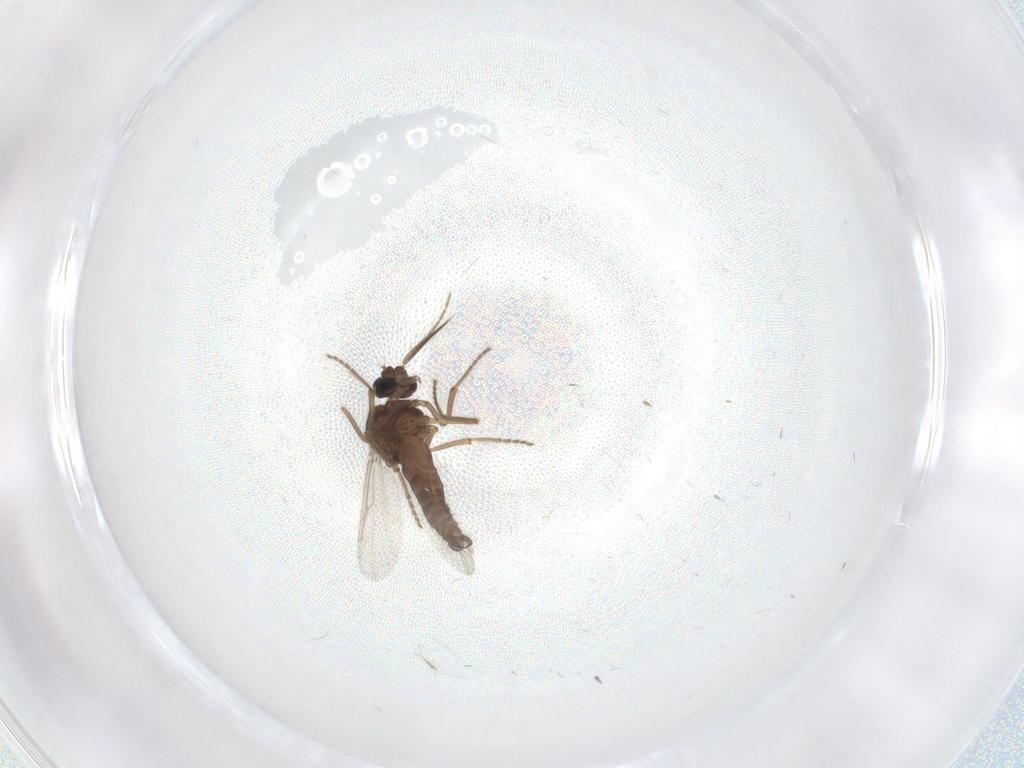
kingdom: Animalia
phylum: Arthropoda
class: Insecta
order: Diptera
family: Ceratopogonidae
